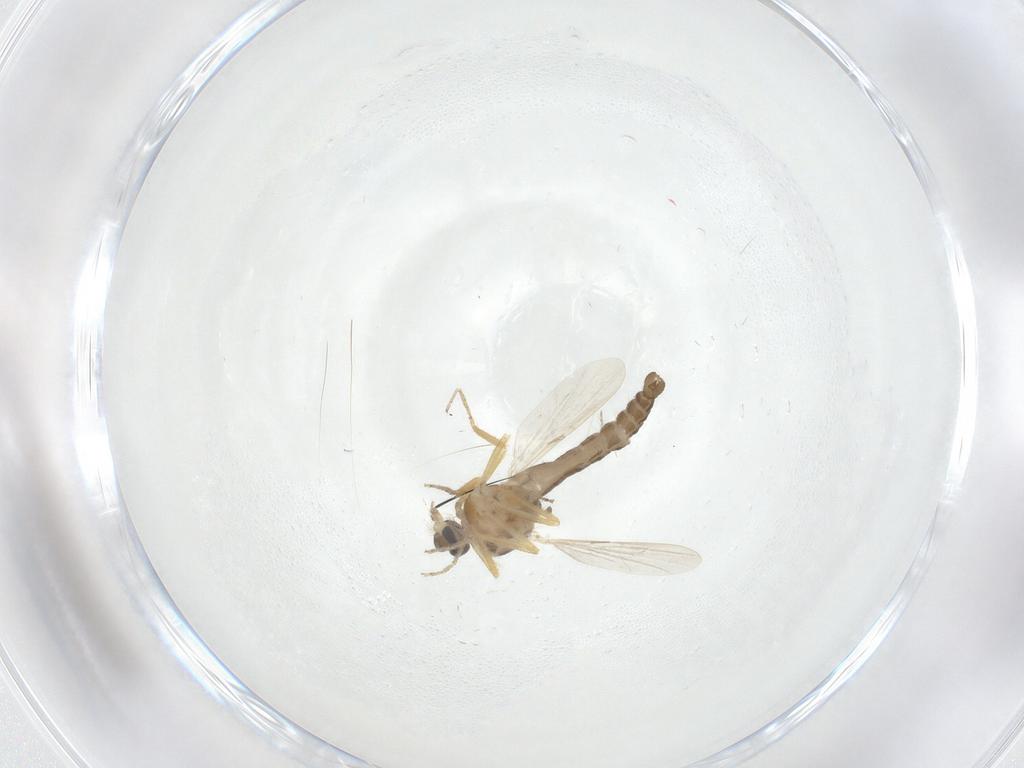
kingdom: Animalia
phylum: Arthropoda
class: Insecta
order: Diptera
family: Ceratopogonidae
